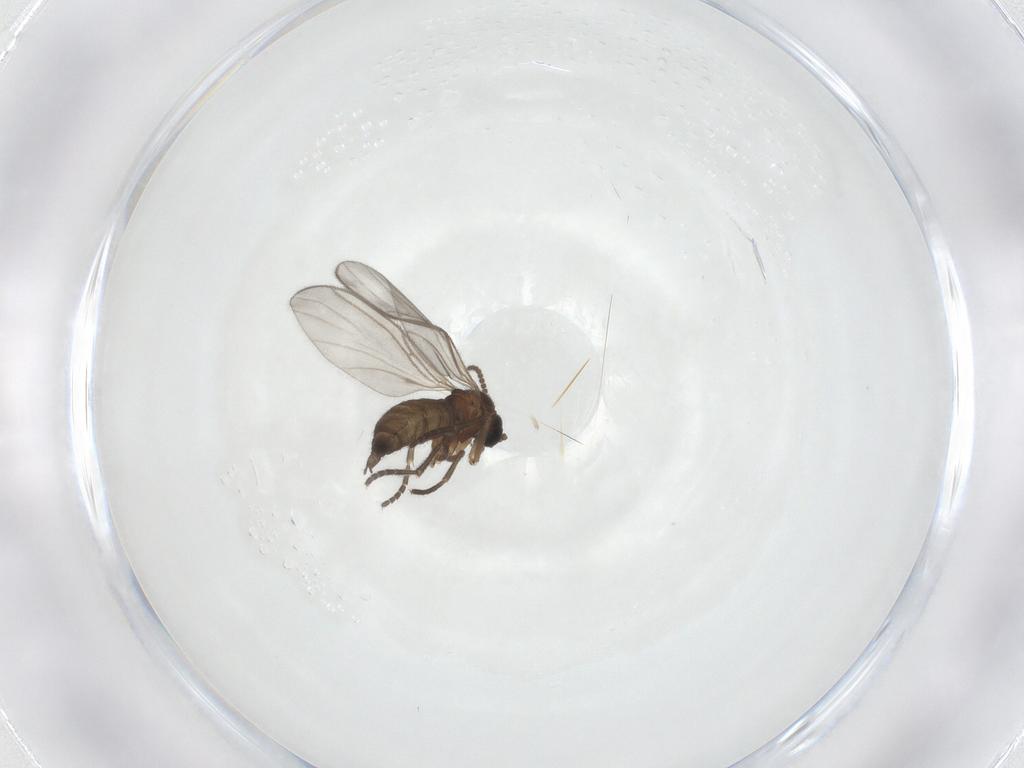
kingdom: Animalia
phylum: Arthropoda
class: Insecta
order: Diptera
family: Sciaridae
